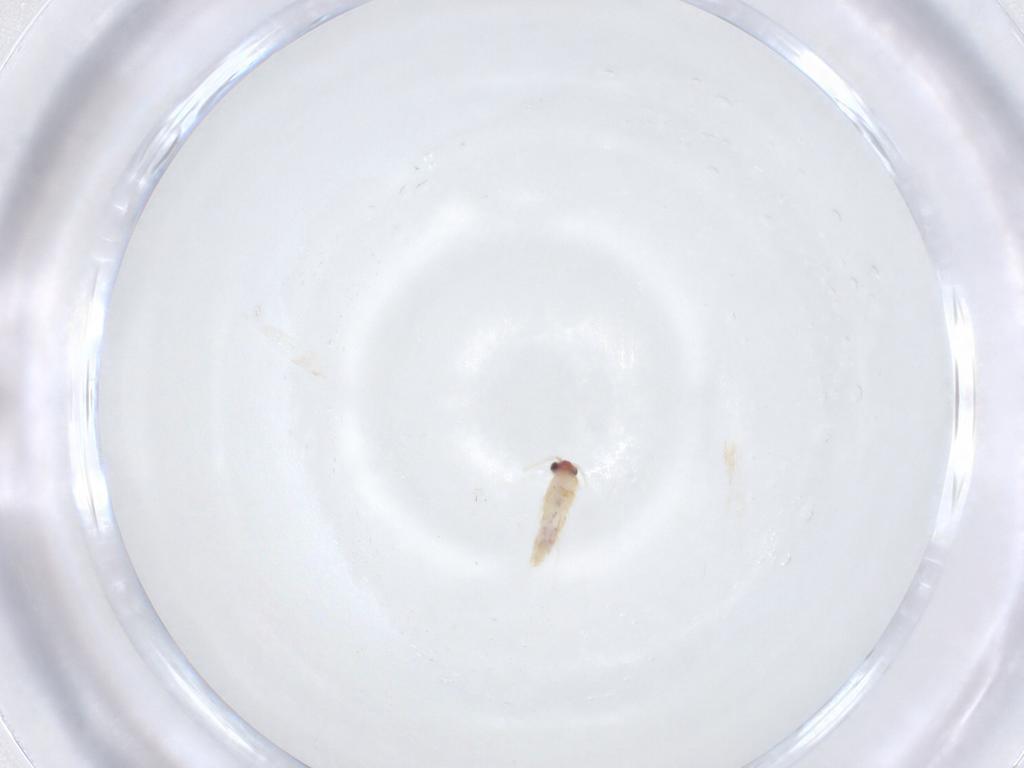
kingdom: Animalia
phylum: Arthropoda
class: Insecta
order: Lepidoptera
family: Nepticulidae
